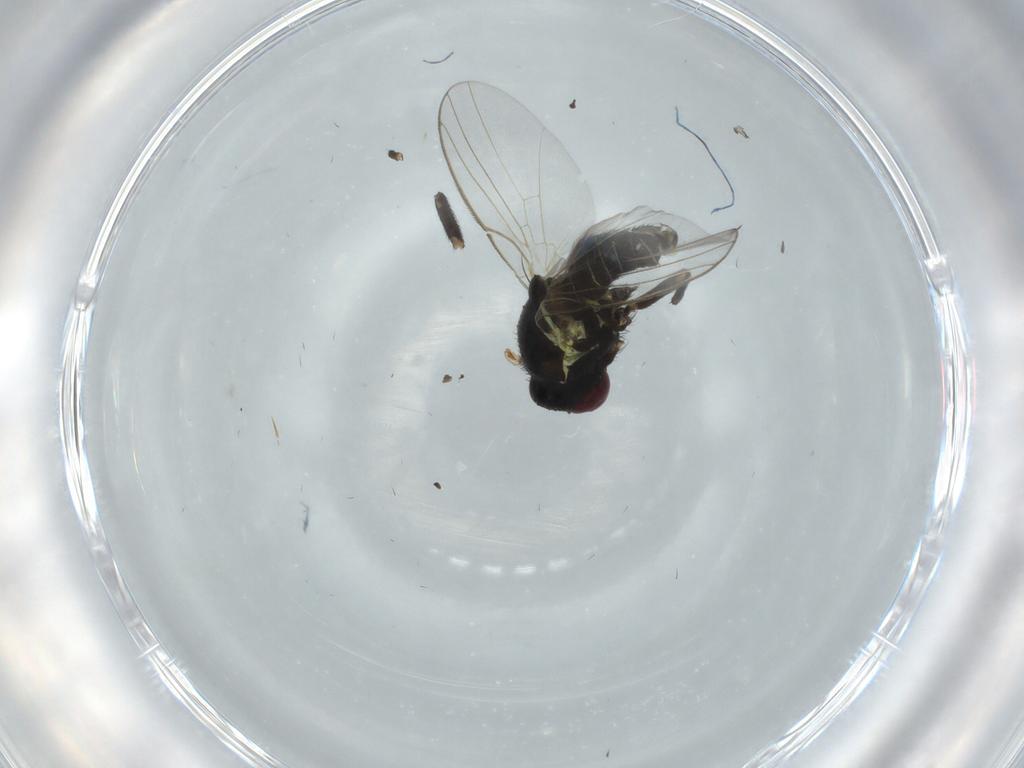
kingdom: Animalia
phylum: Arthropoda
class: Insecta
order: Diptera
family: Agromyzidae
